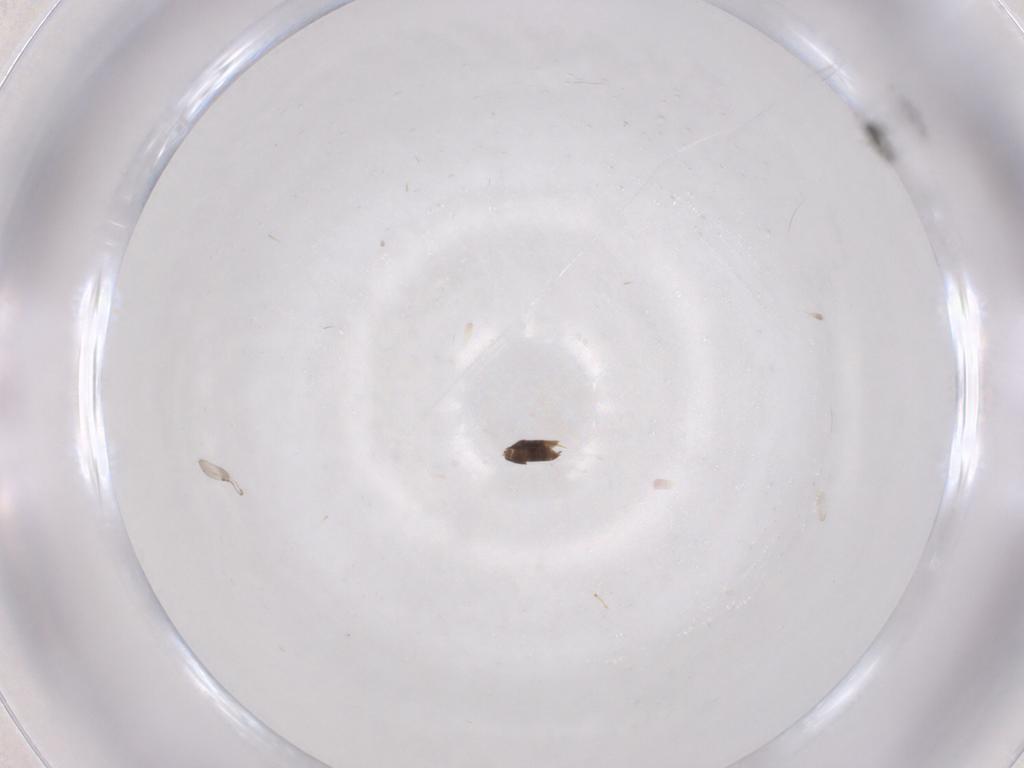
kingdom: Animalia
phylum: Arthropoda
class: Insecta
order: Diptera
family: Cecidomyiidae
